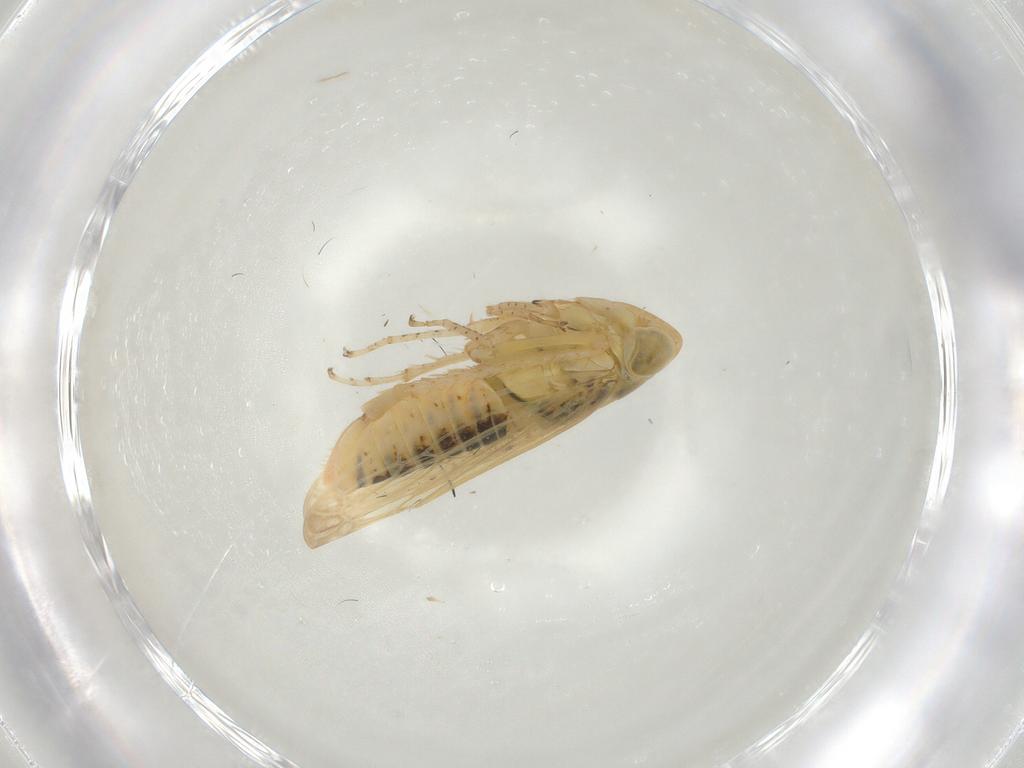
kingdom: Animalia
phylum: Arthropoda
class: Insecta
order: Hemiptera
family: Cicadellidae
